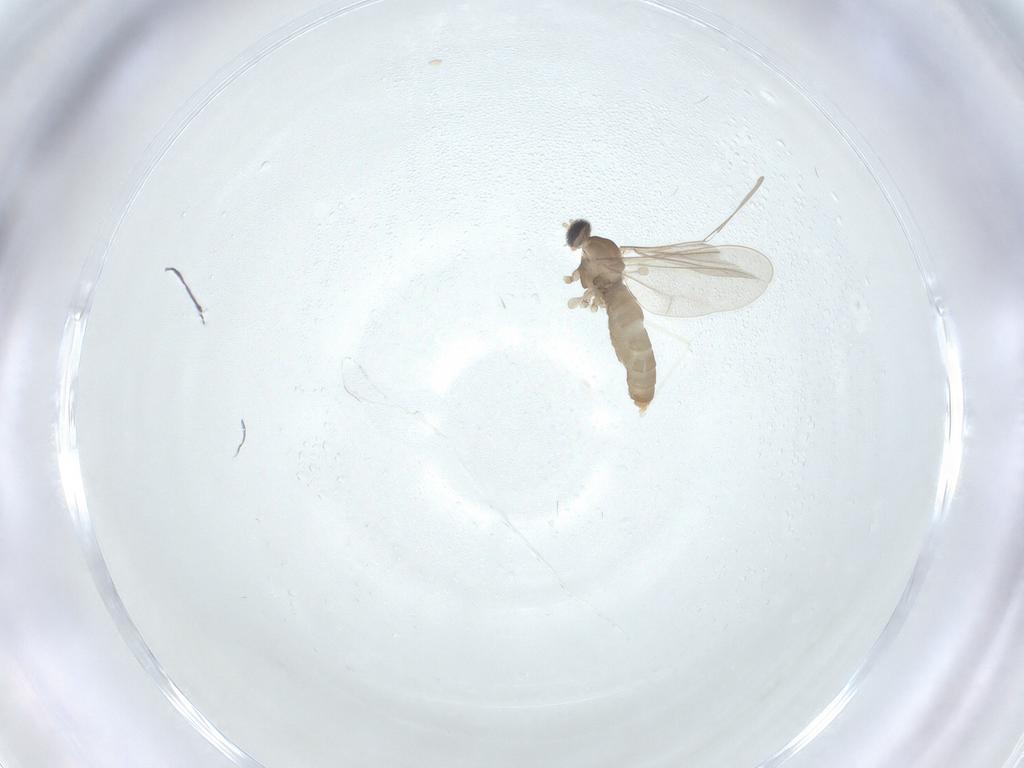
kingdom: Animalia
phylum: Arthropoda
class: Insecta
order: Diptera
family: Cecidomyiidae
